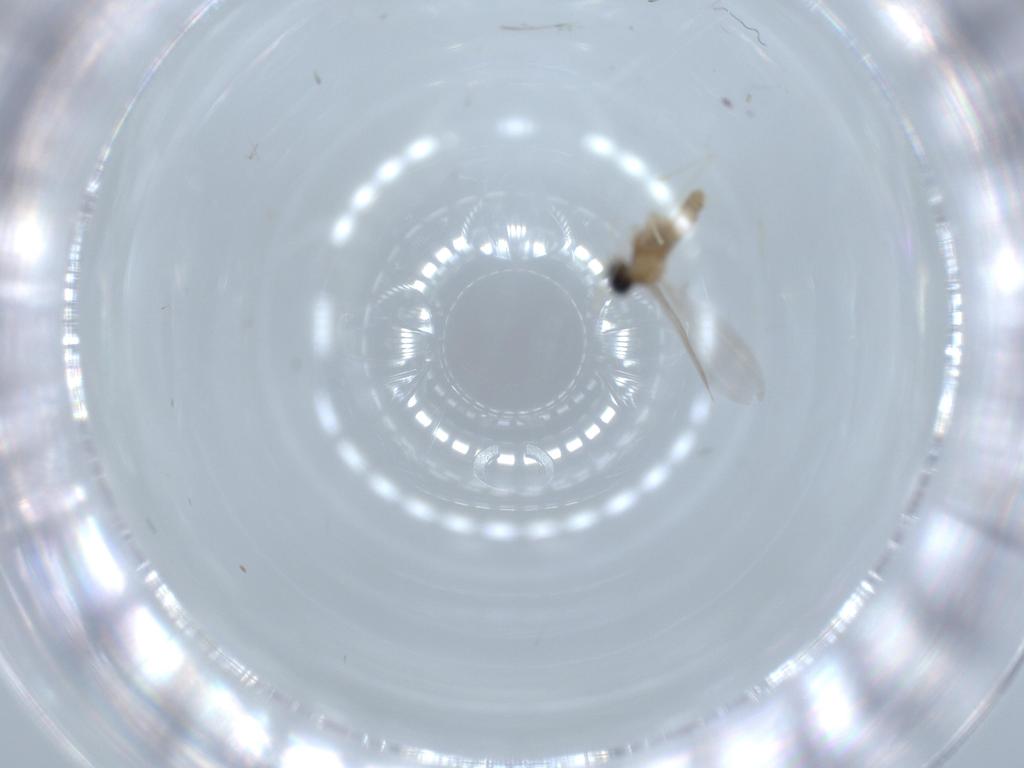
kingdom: Animalia
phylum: Arthropoda
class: Insecta
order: Diptera
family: Cecidomyiidae
